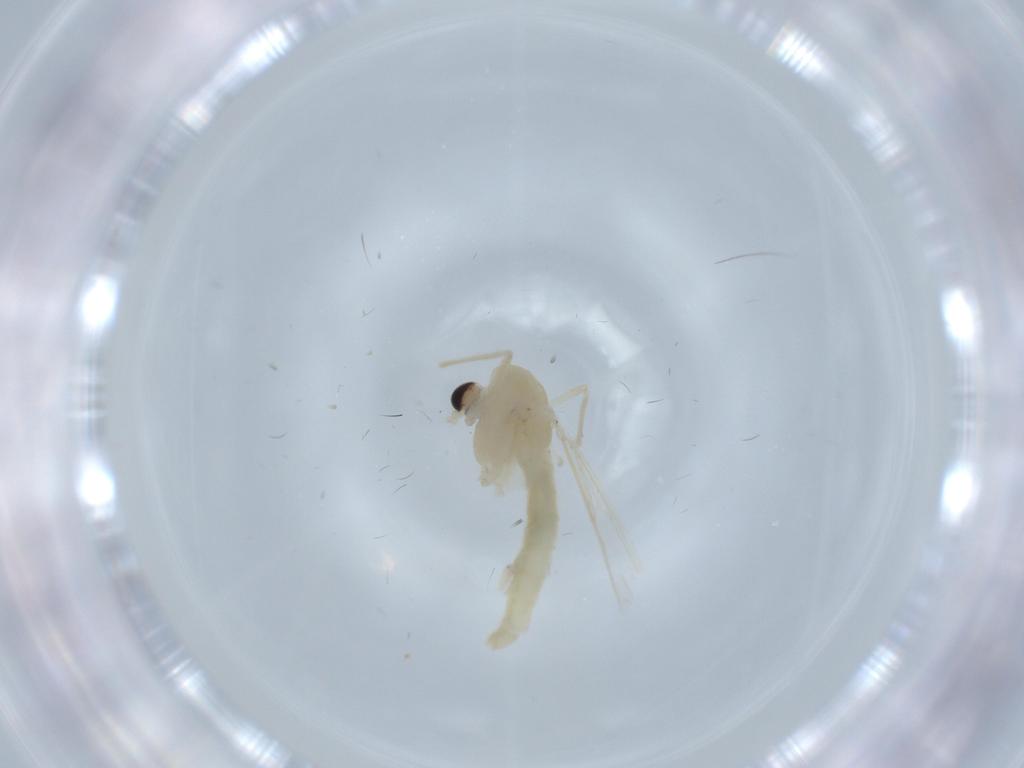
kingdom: Animalia
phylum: Arthropoda
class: Insecta
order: Diptera
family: Chironomidae
